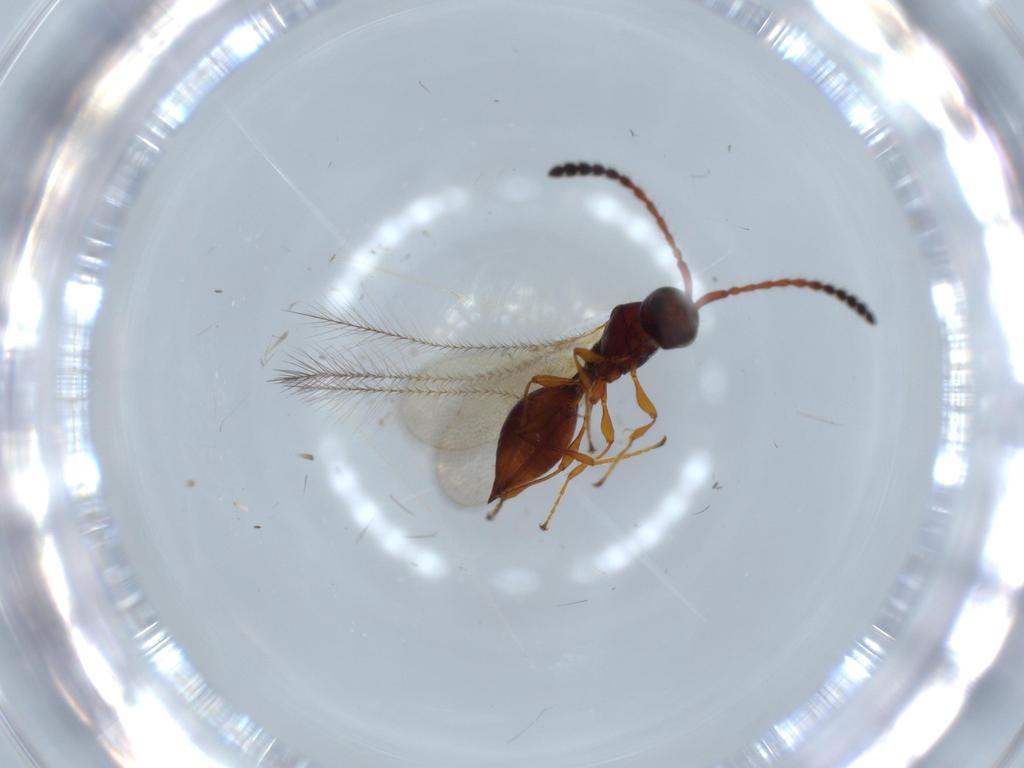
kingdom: Animalia
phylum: Arthropoda
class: Insecta
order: Hymenoptera
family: Diapriidae
